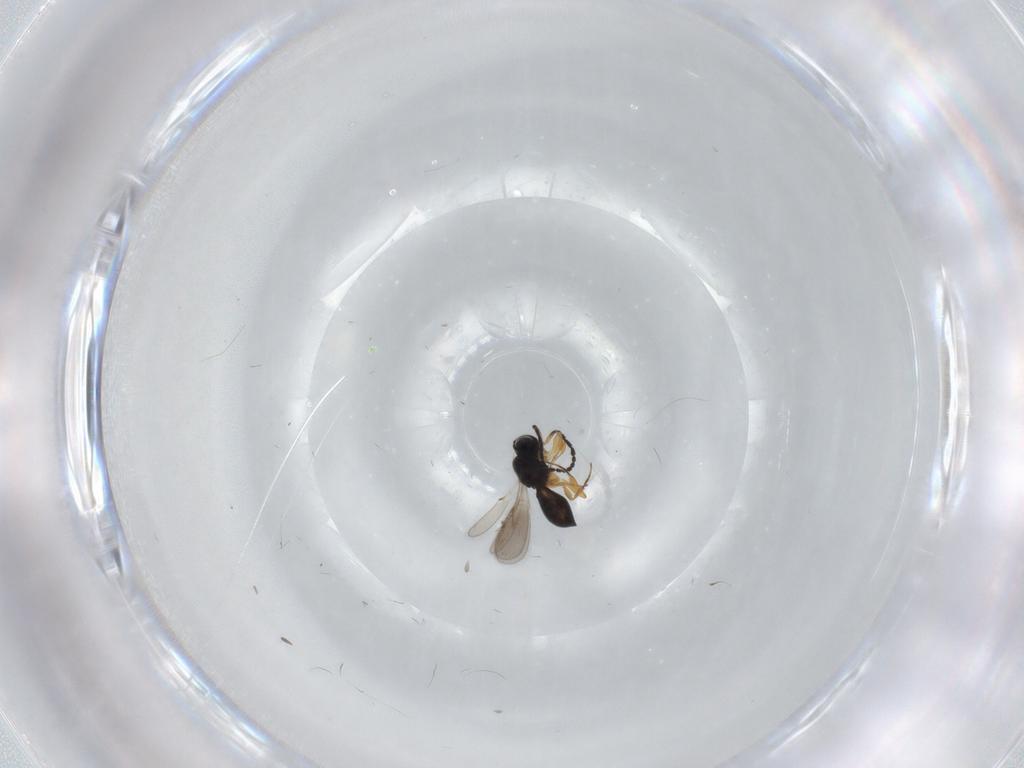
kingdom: Animalia
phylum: Arthropoda
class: Insecta
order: Hymenoptera
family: Scelionidae
